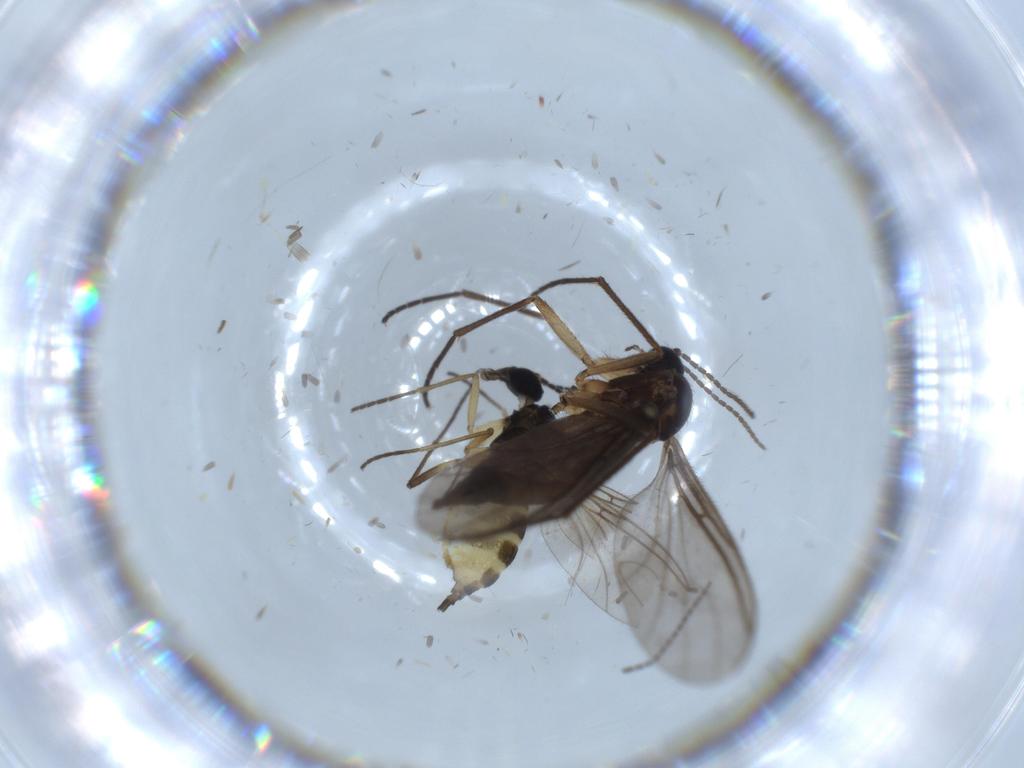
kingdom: Animalia
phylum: Arthropoda
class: Insecta
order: Diptera
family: Sciaridae
